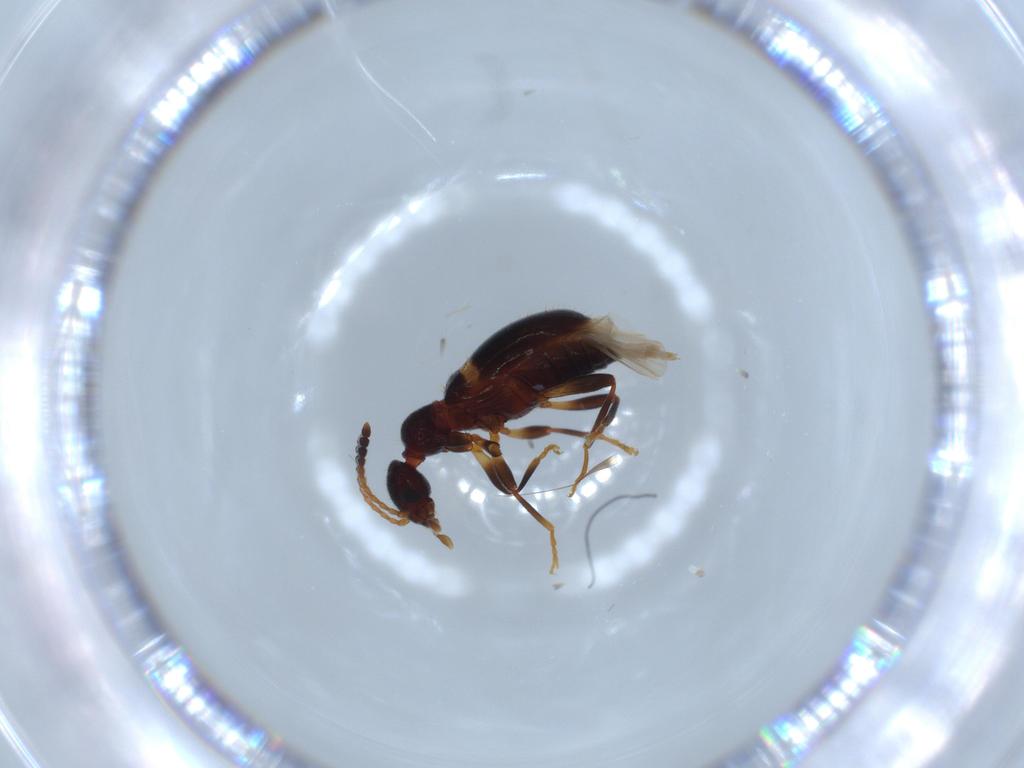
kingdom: Animalia
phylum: Arthropoda
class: Insecta
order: Coleoptera
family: Anthicidae
